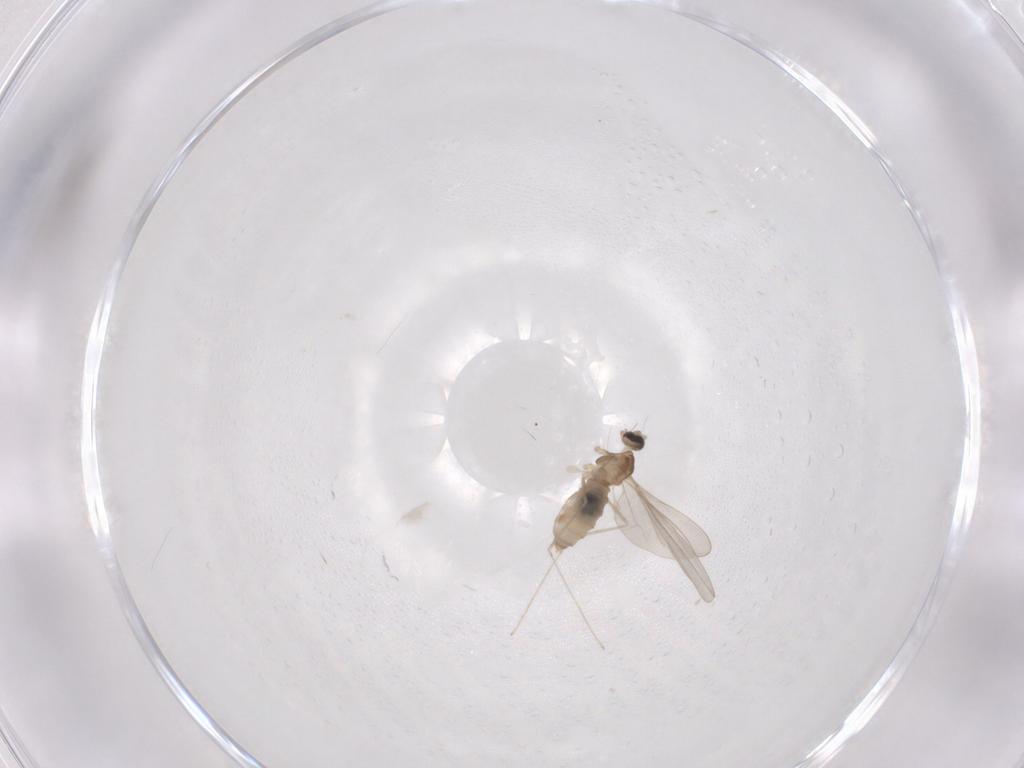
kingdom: Animalia
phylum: Arthropoda
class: Insecta
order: Diptera
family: Cecidomyiidae
